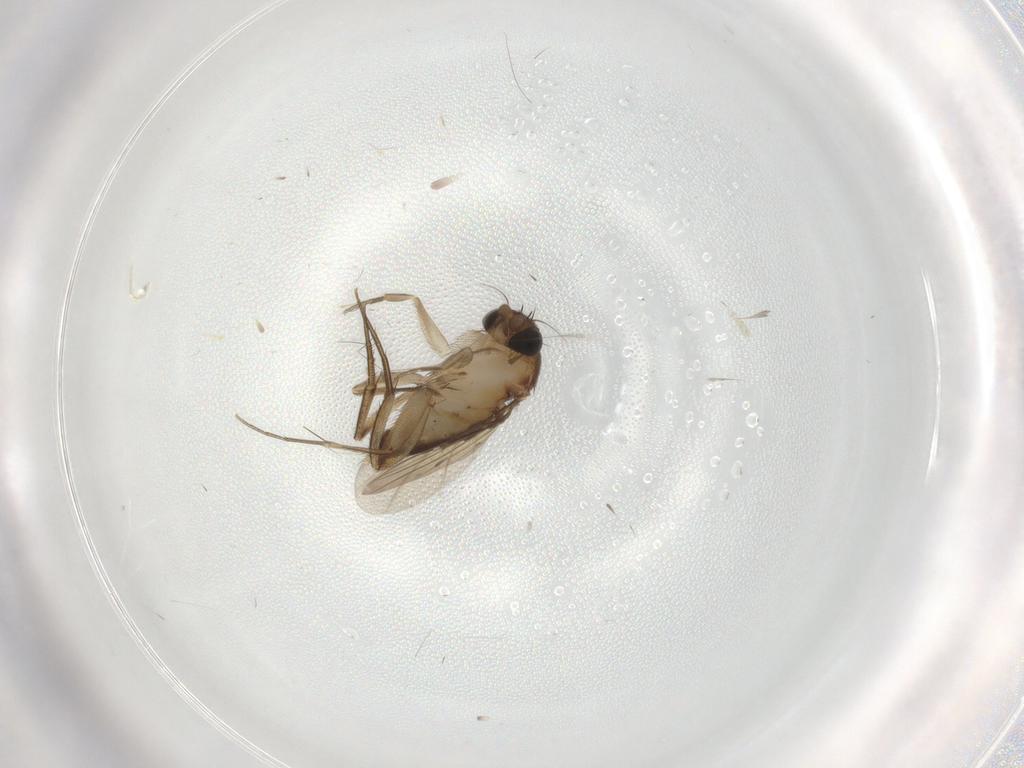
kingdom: Animalia
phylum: Arthropoda
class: Insecta
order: Diptera
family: Phoridae
